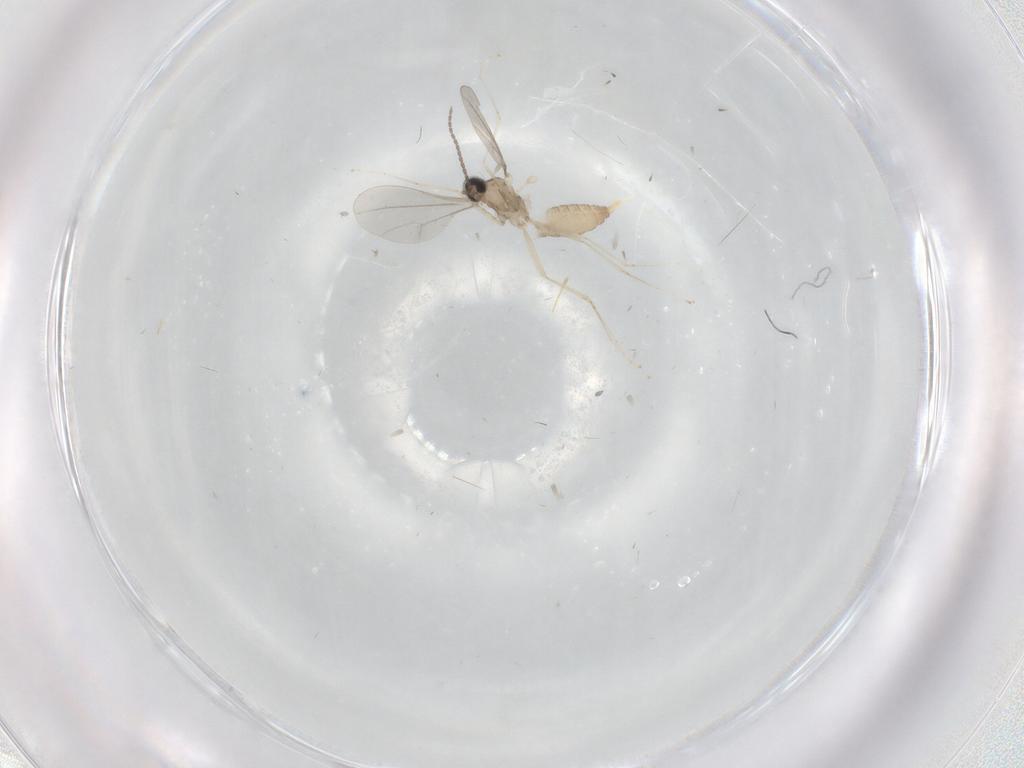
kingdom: Animalia
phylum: Arthropoda
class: Insecta
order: Diptera
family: Cecidomyiidae
